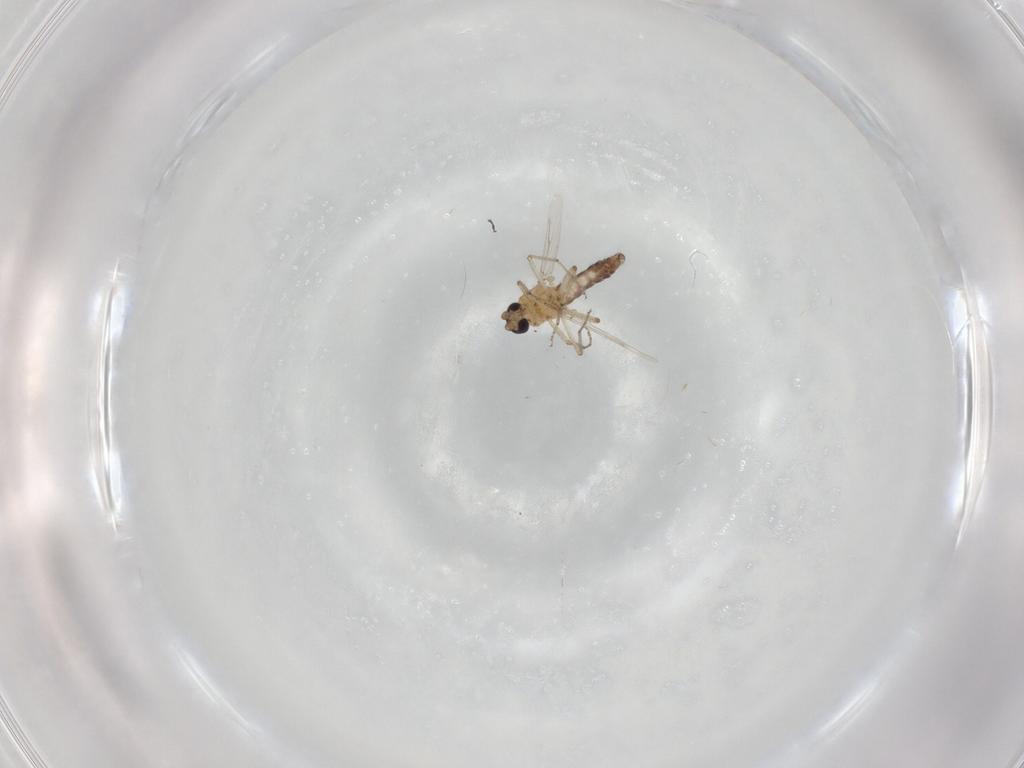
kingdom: Animalia
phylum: Arthropoda
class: Insecta
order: Diptera
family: Ceratopogonidae
